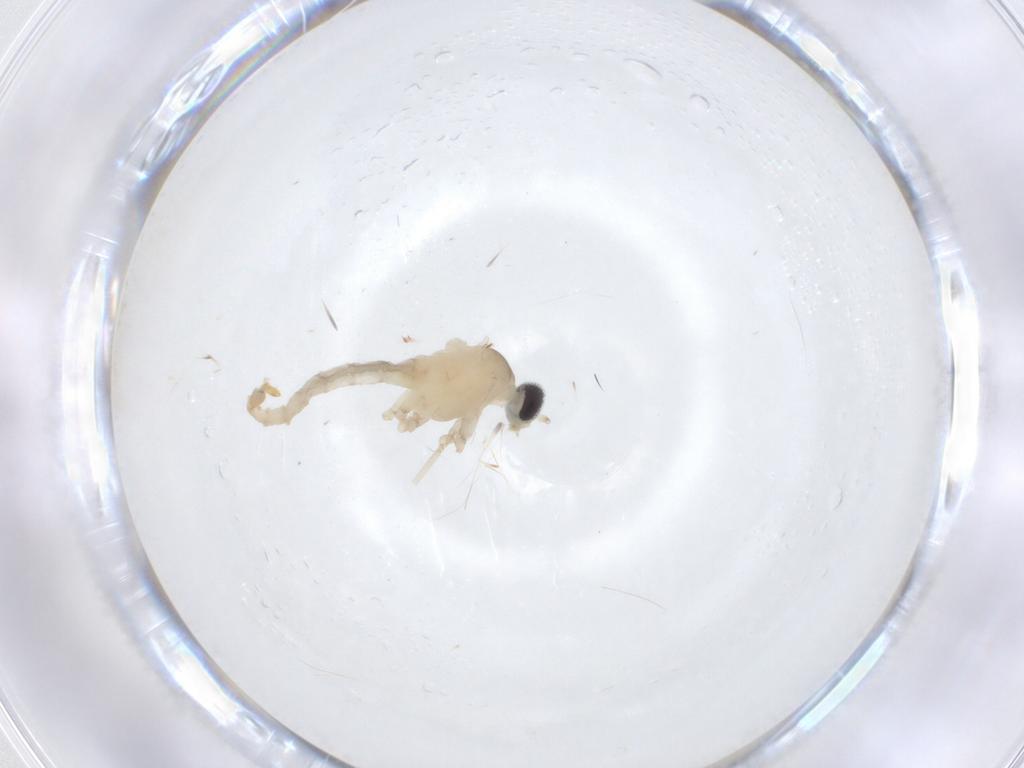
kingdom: Animalia
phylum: Arthropoda
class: Insecta
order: Diptera
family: Cecidomyiidae
